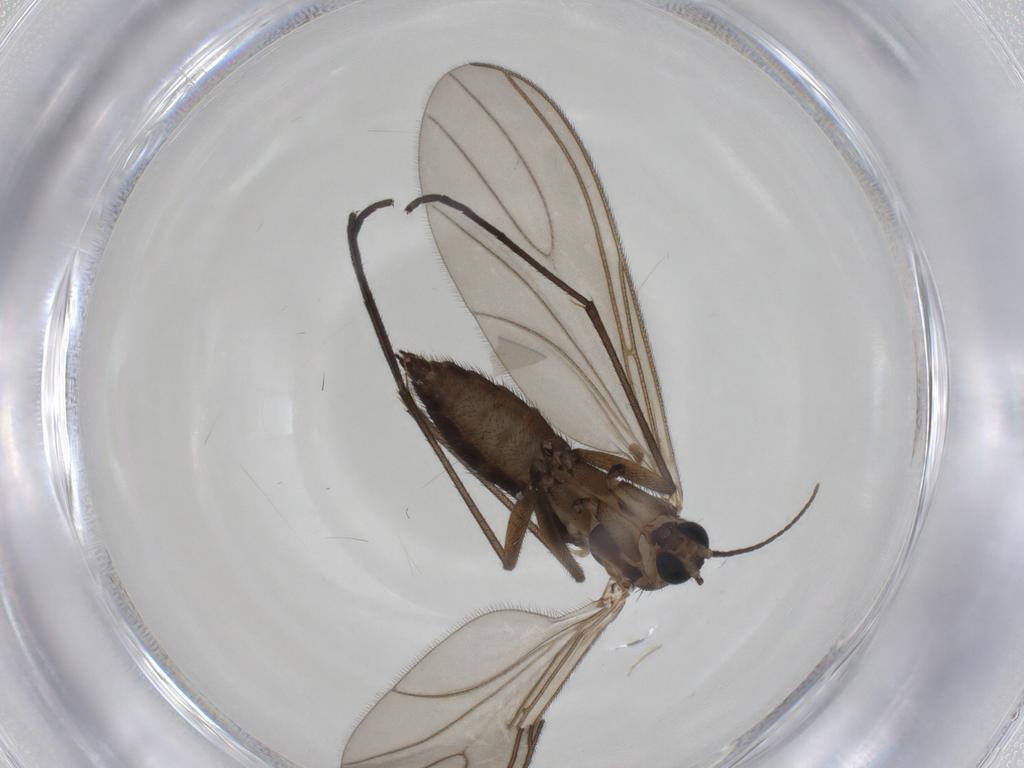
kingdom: Animalia
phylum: Arthropoda
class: Insecta
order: Diptera
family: Sciaridae
